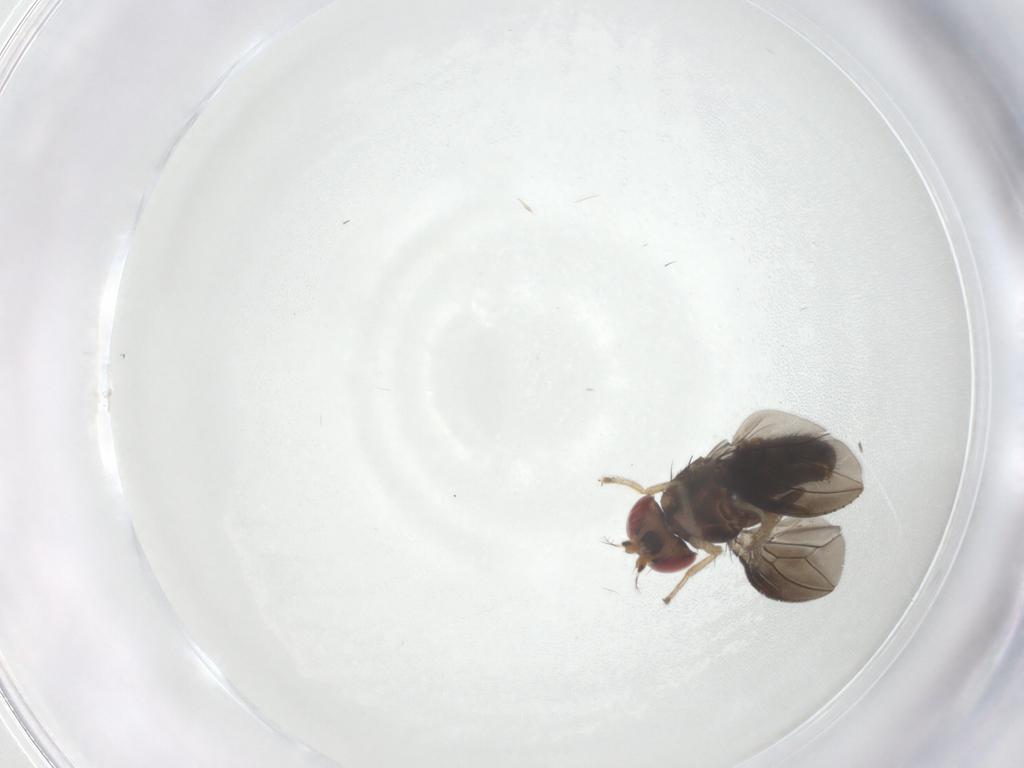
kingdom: Animalia
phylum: Arthropoda
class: Insecta
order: Diptera
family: Drosophilidae
